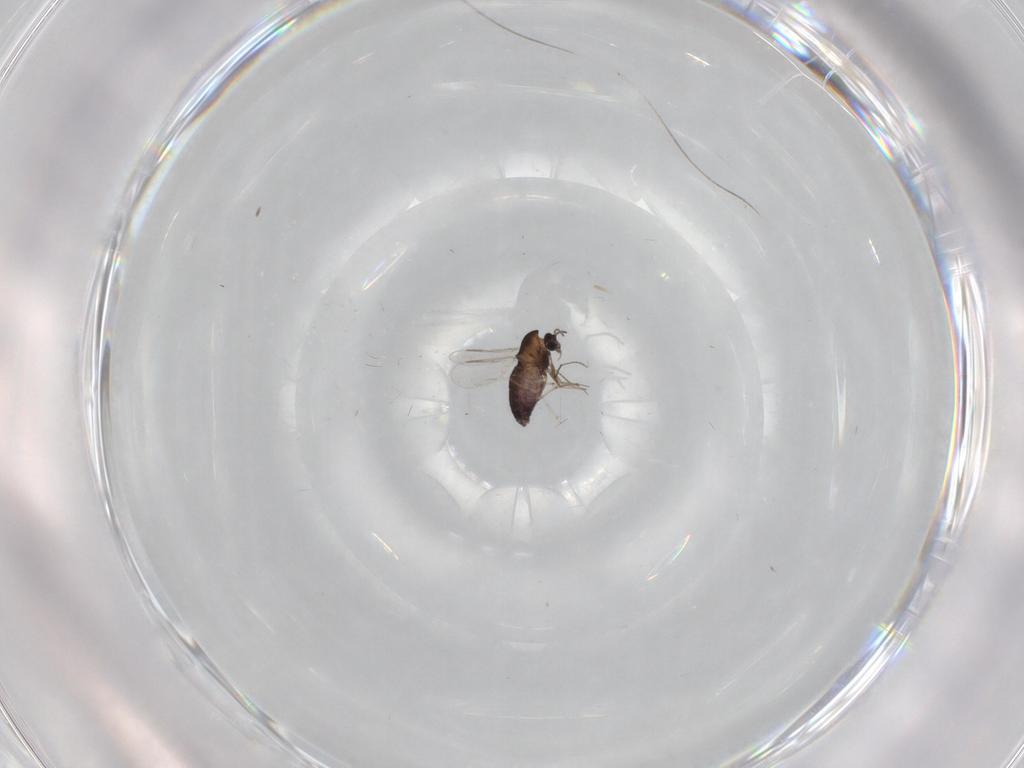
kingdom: Animalia
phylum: Arthropoda
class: Insecta
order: Diptera
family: Chironomidae
